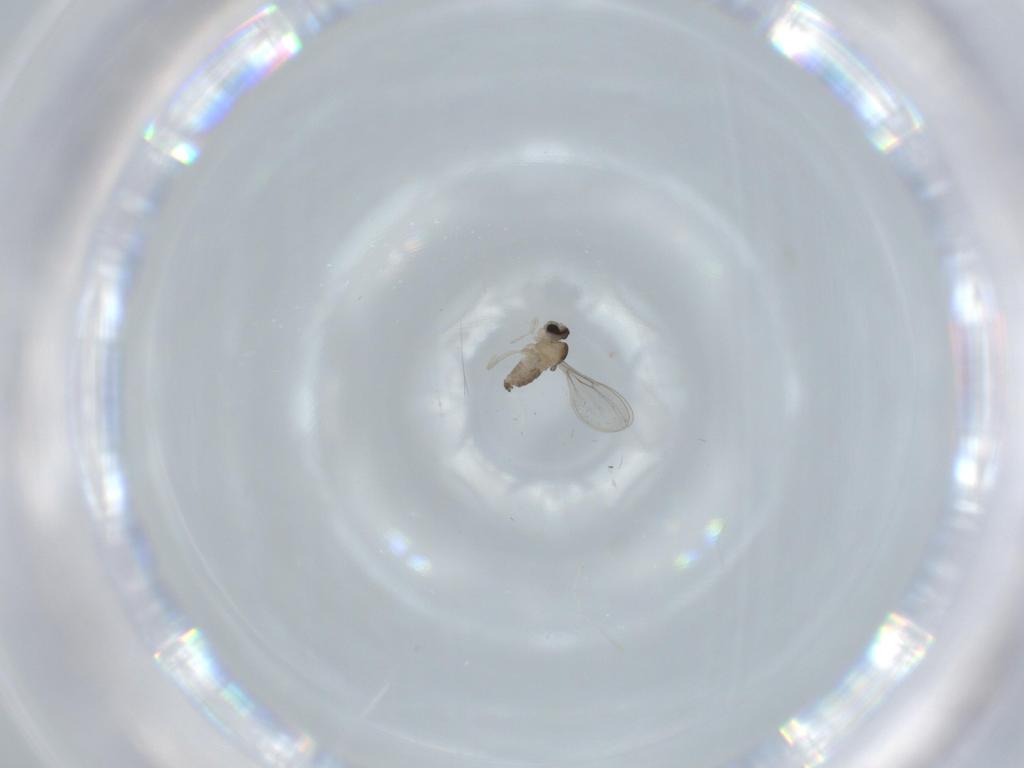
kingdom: Animalia
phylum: Arthropoda
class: Insecta
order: Diptera
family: Cecidomyiidae
